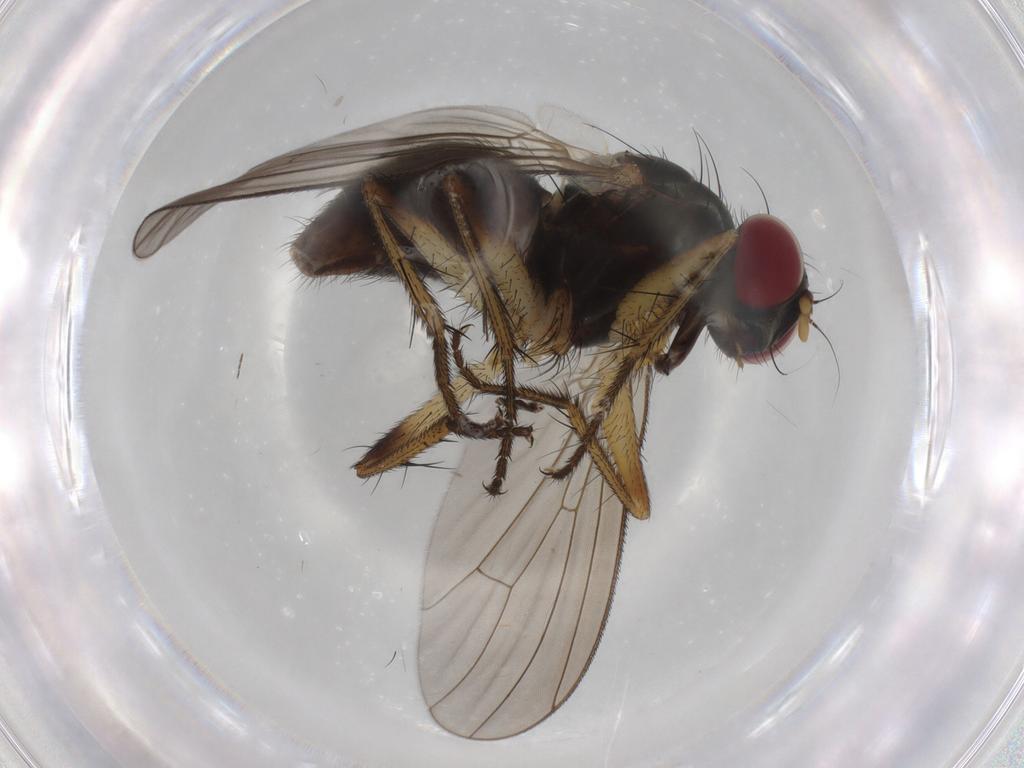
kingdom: Animalia
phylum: Arthropoda
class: Insecta
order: Diptera
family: Muscidae
